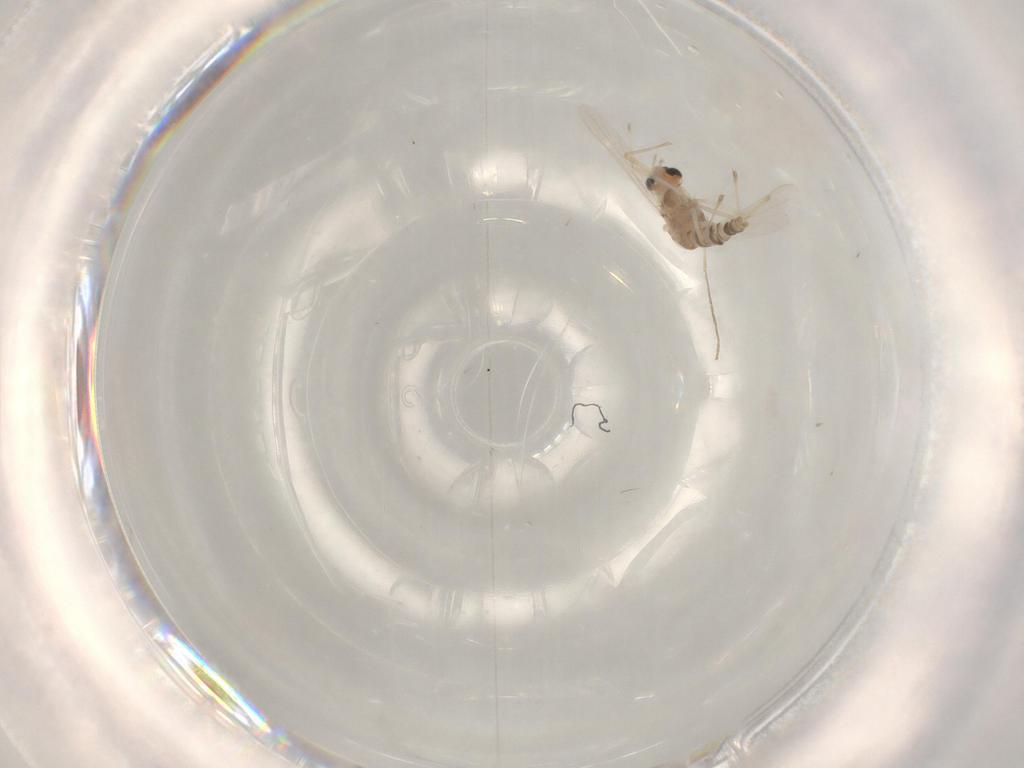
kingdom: Animalia
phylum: Arthropoda
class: Insecta
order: Diptera
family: Chironomidae
